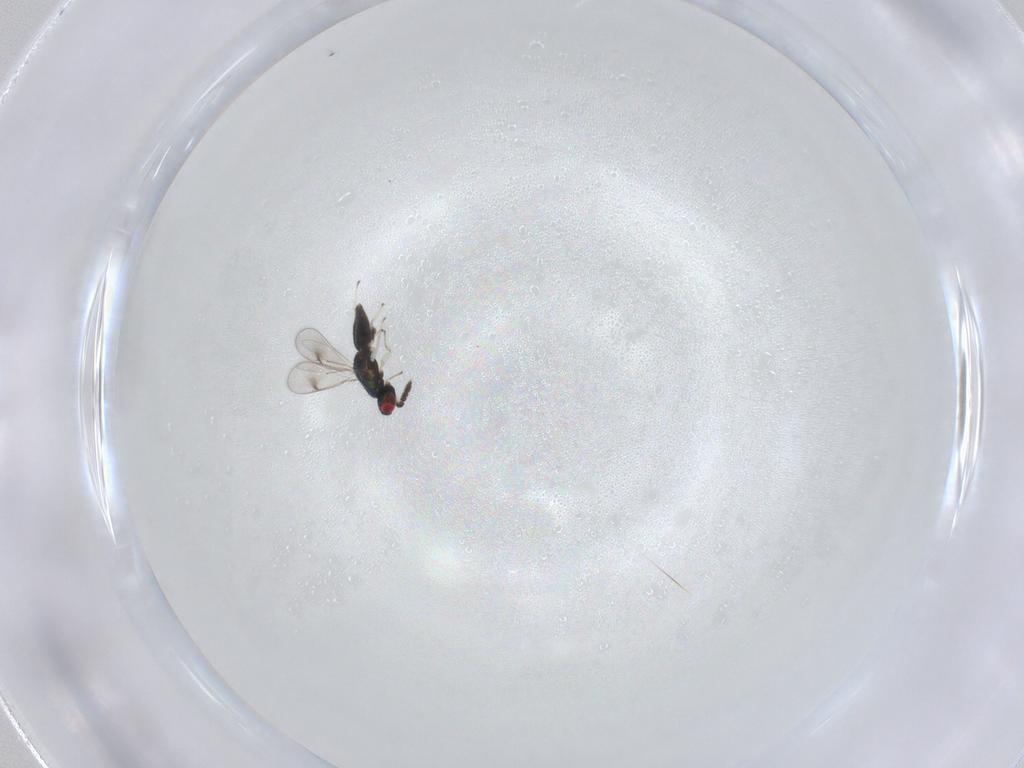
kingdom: Animalia
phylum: Arthropoda
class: Insecta
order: Hymenoptera
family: Eulophidae
